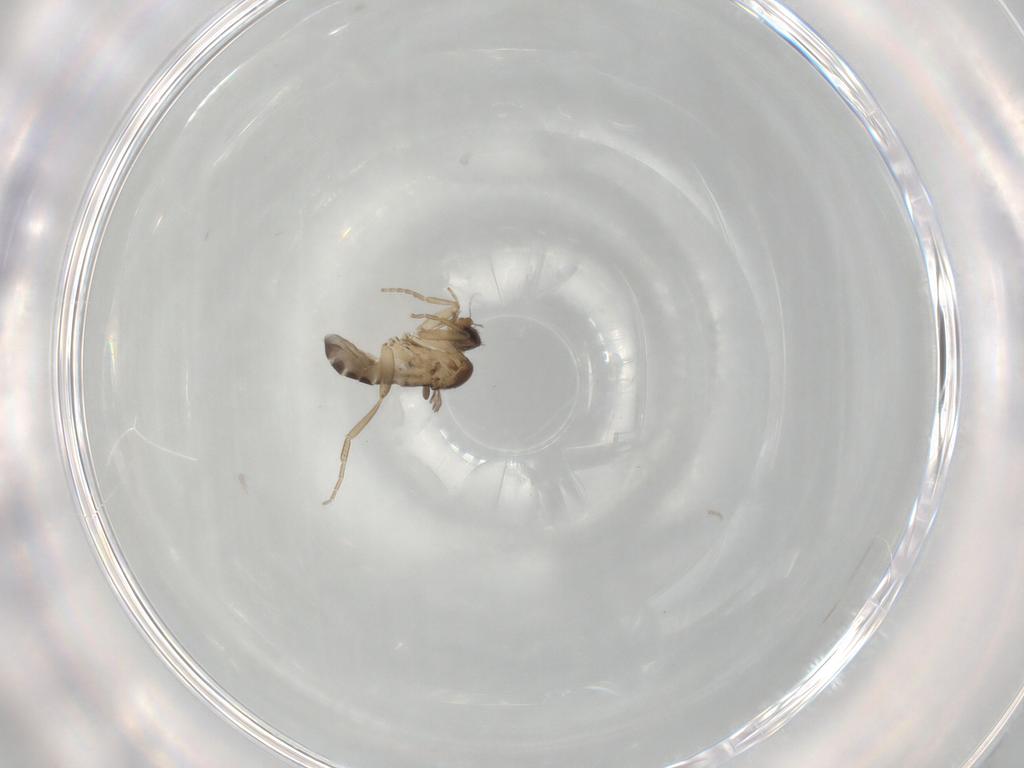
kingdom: Animalia
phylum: Arthropoda
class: Insecta
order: Diptera
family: Phoridae
